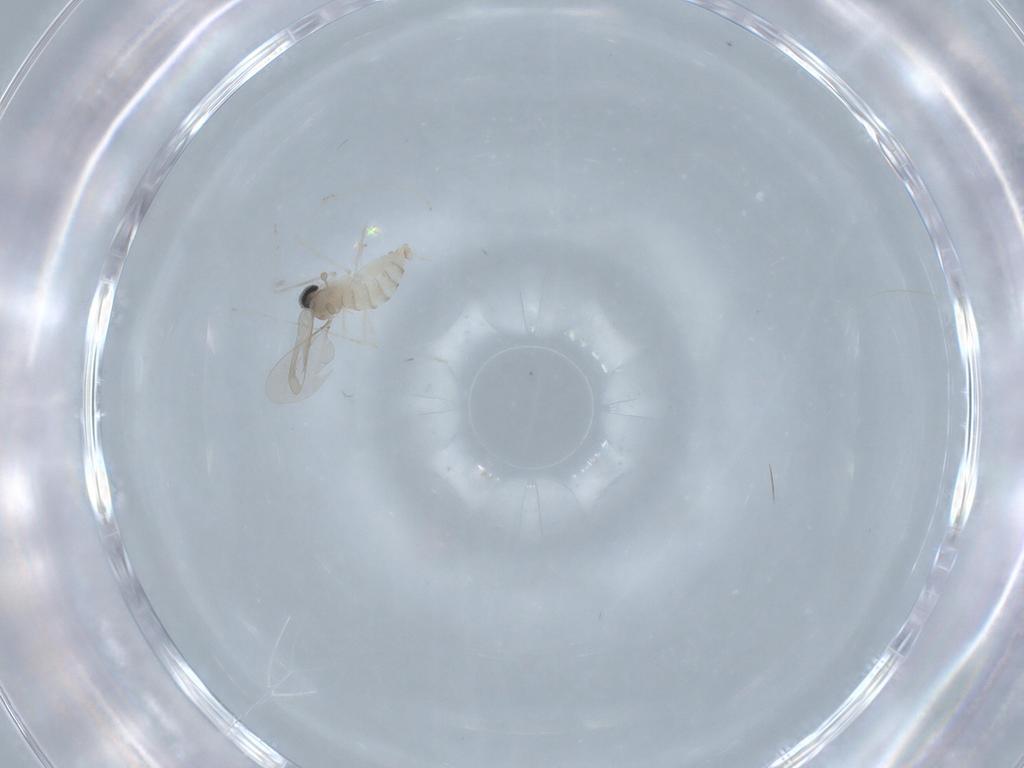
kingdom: Animalia
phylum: Arthropoda
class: Insecta
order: Diptera
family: Cecidomyiidae
